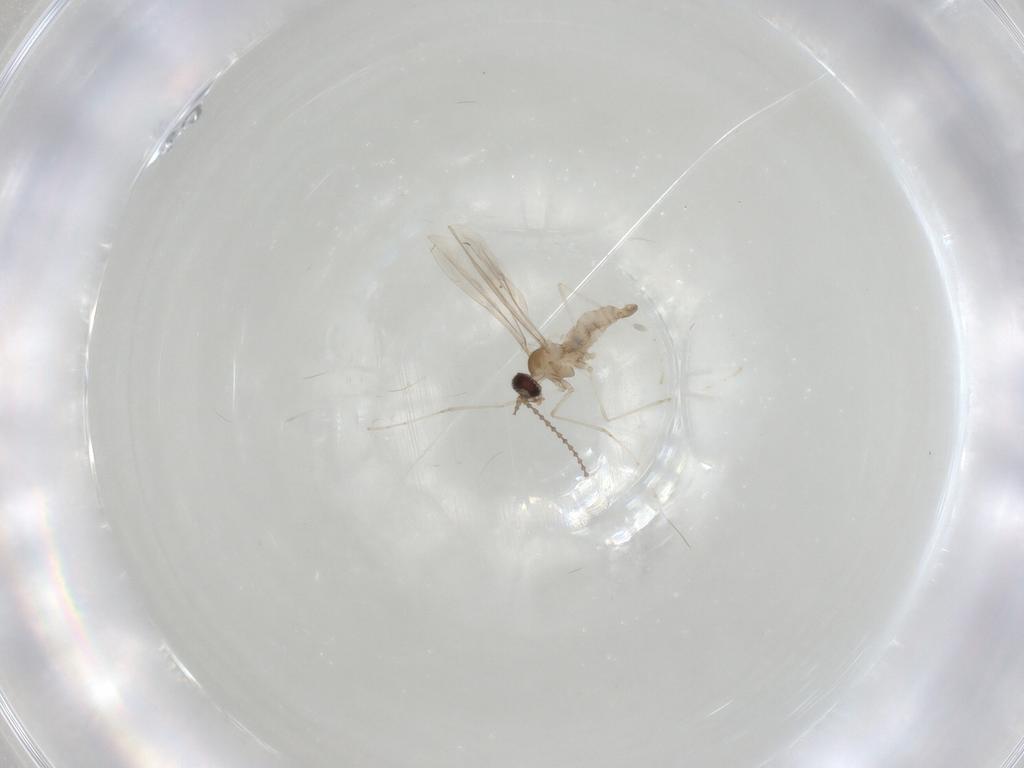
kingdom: Animalia
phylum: Arthropoda
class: Insecta
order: Diptera
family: Cecidomyiidae
